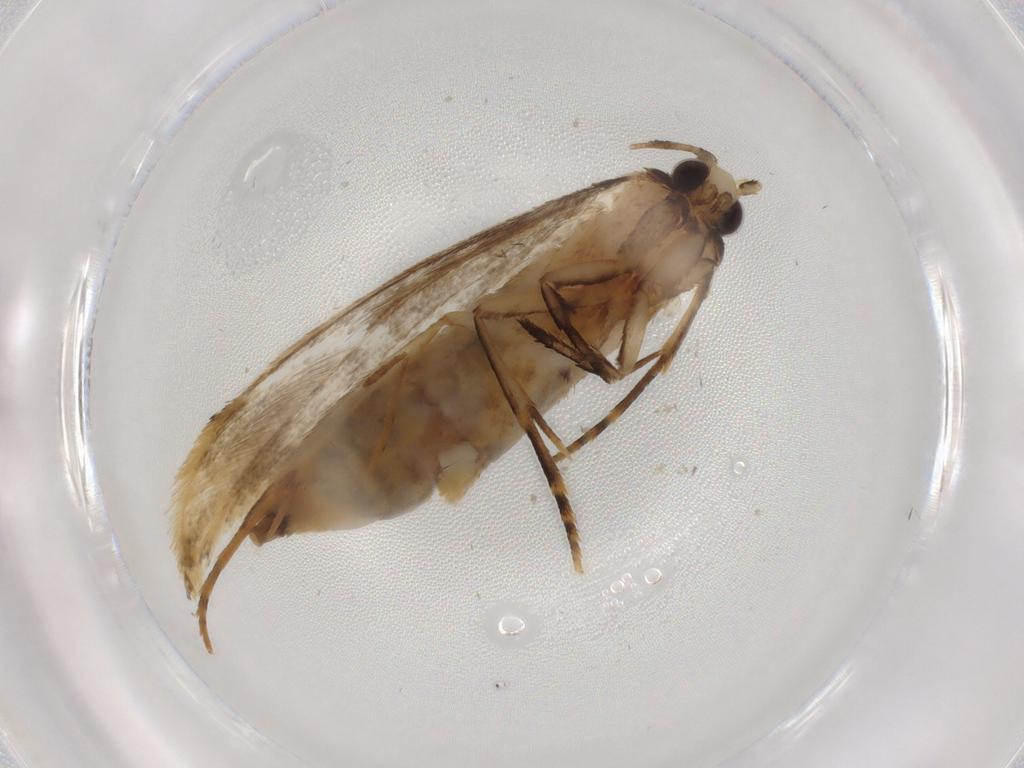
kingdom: Animalia
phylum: Arthropoda
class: Insecta
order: Lepidoptera
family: Tineidae
